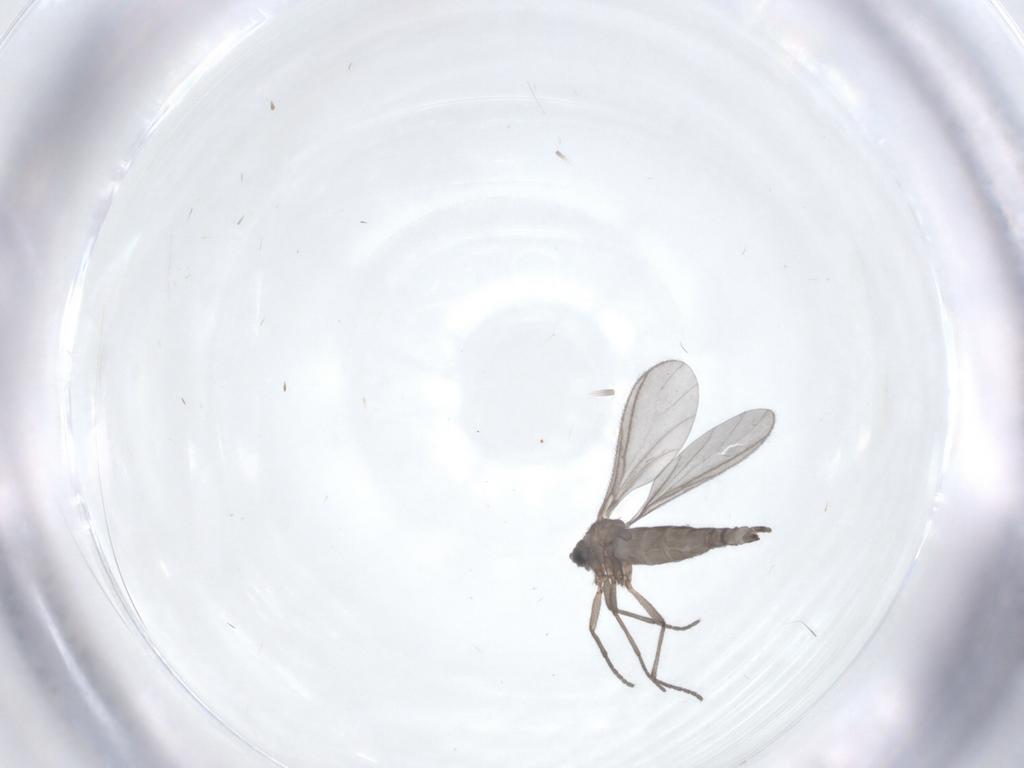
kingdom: Animalia
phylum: Arthropoda
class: Insecta
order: Diptera
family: Sciaridae
